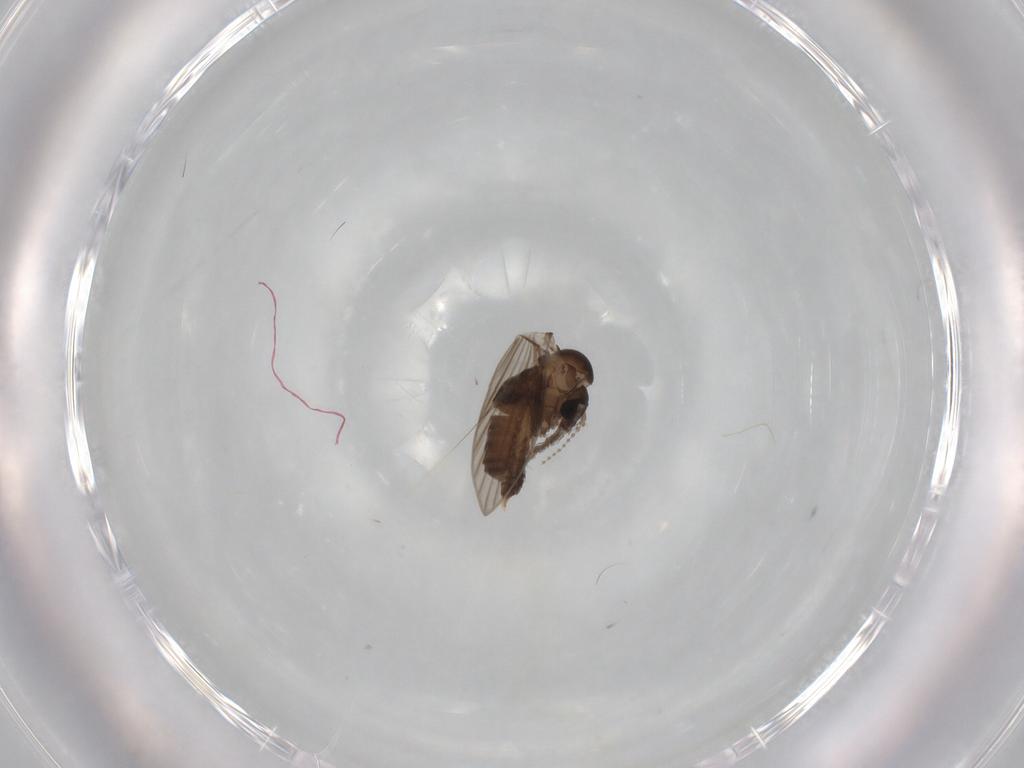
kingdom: Animalia
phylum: Arthropoda
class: Insecta
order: Diptera
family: Psychodidae
